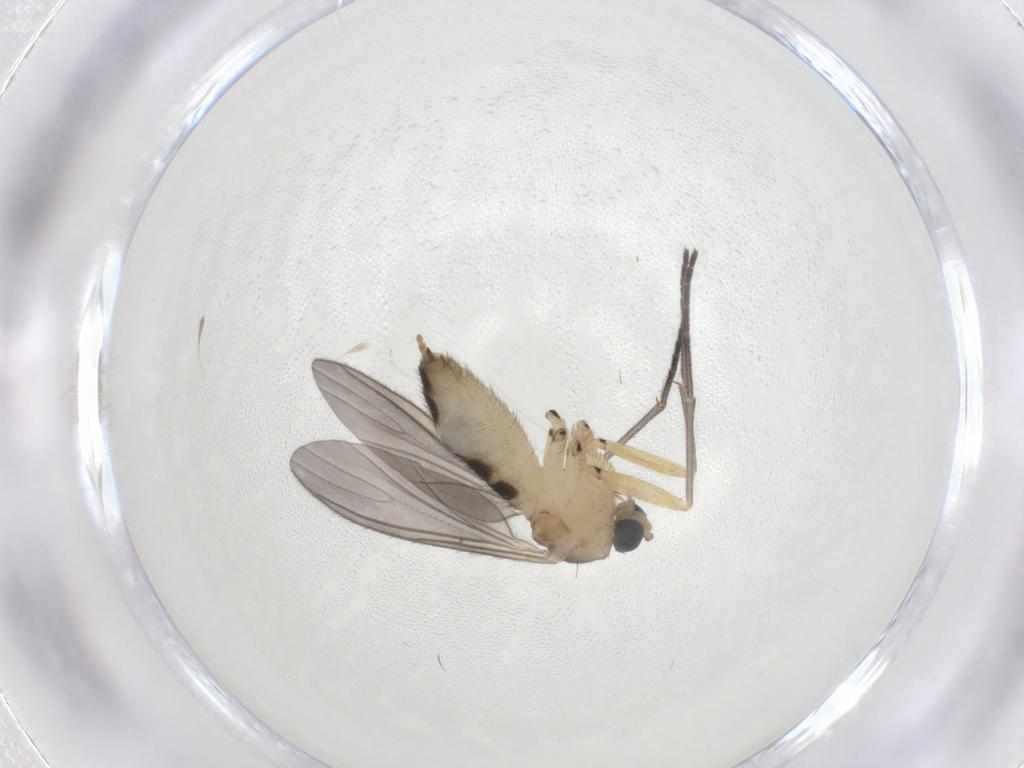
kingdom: Animalia
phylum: Arthropoda
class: Insecta
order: Diptera
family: Sciaridae
